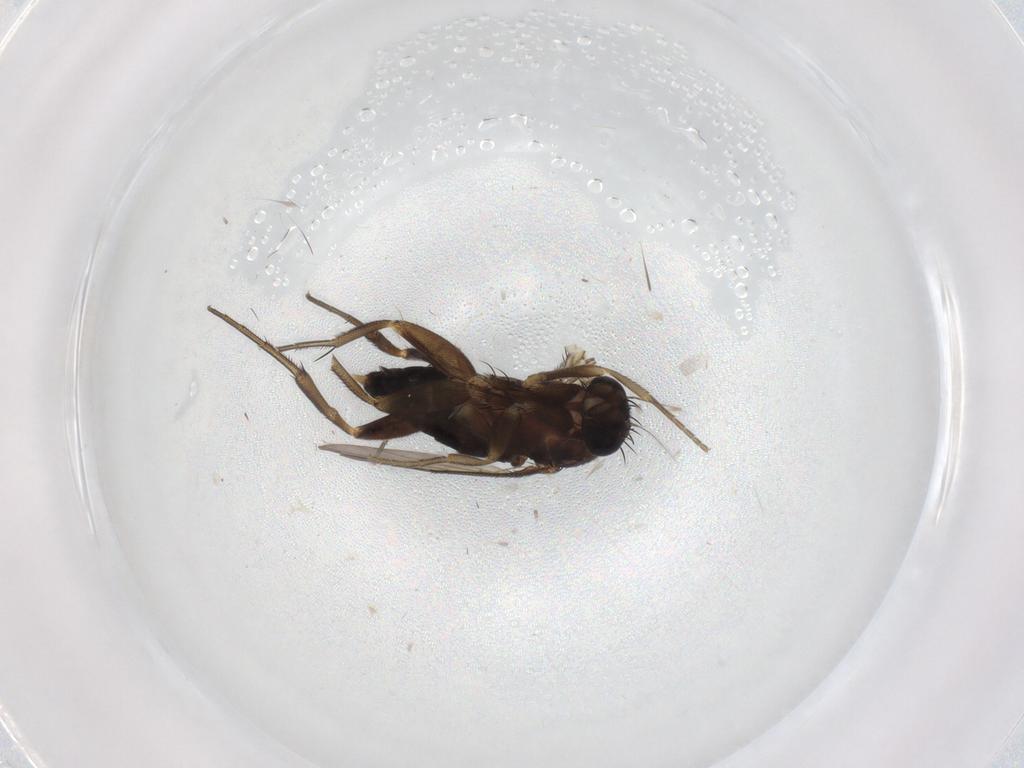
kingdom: Animalia
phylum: Arthropoda
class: Insecta
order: Diptera
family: Phoridae
